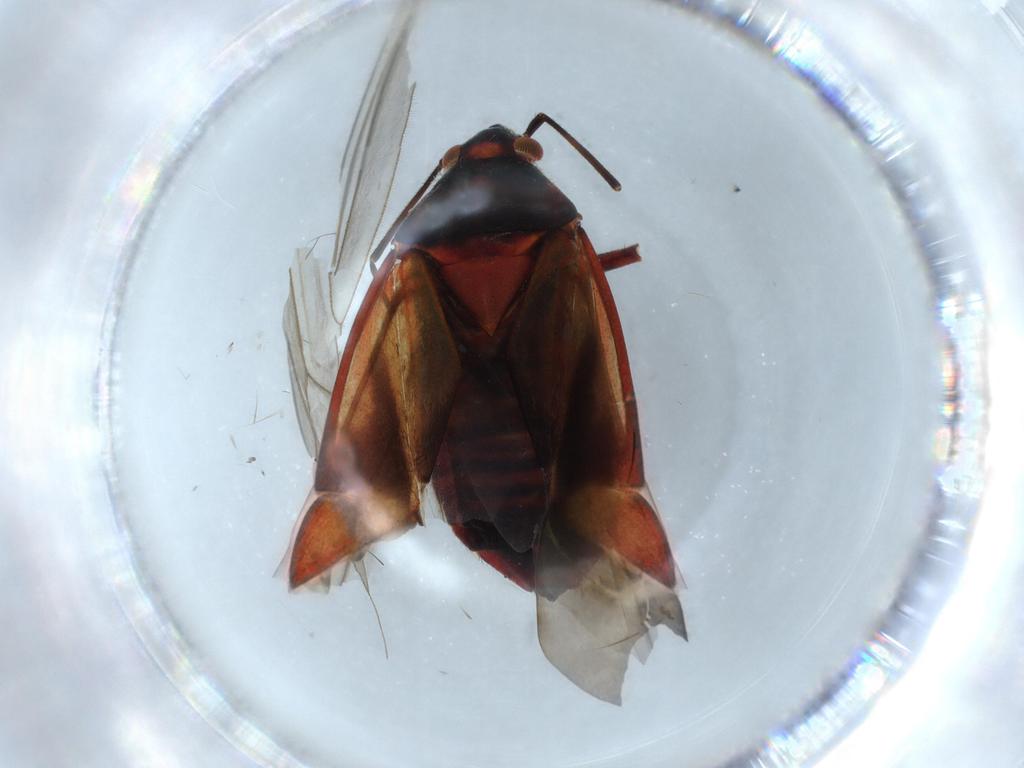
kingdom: Animalia
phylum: Arthropoda
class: Insecta
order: Hemiptera
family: Miridae
